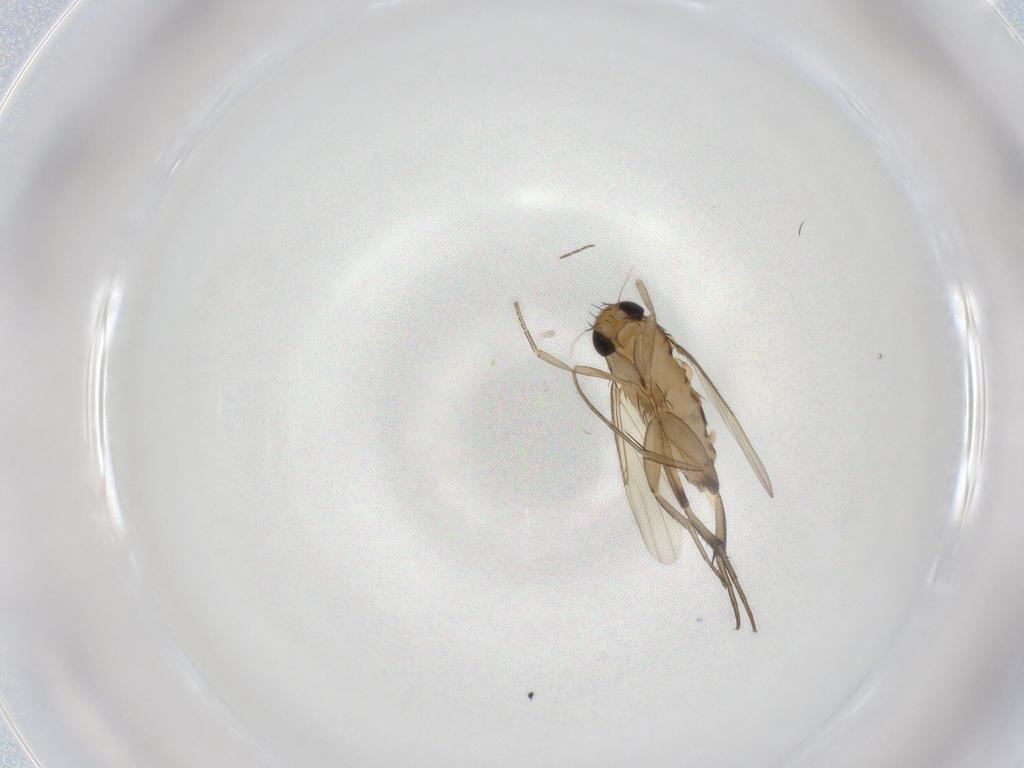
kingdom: Animalia
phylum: Arthropoda
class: Insecta
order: Diptera
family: Phoridae
